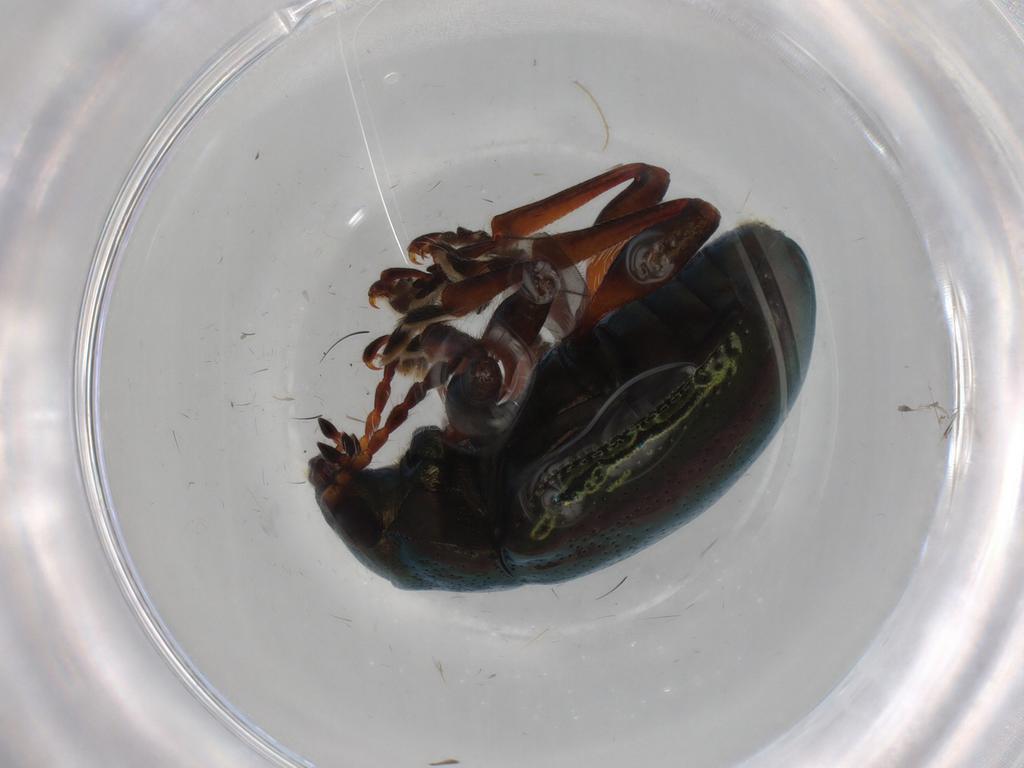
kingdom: Animalia
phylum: Arthropoda
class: Insecta
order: Coleoptera
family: Chrysomelidae
